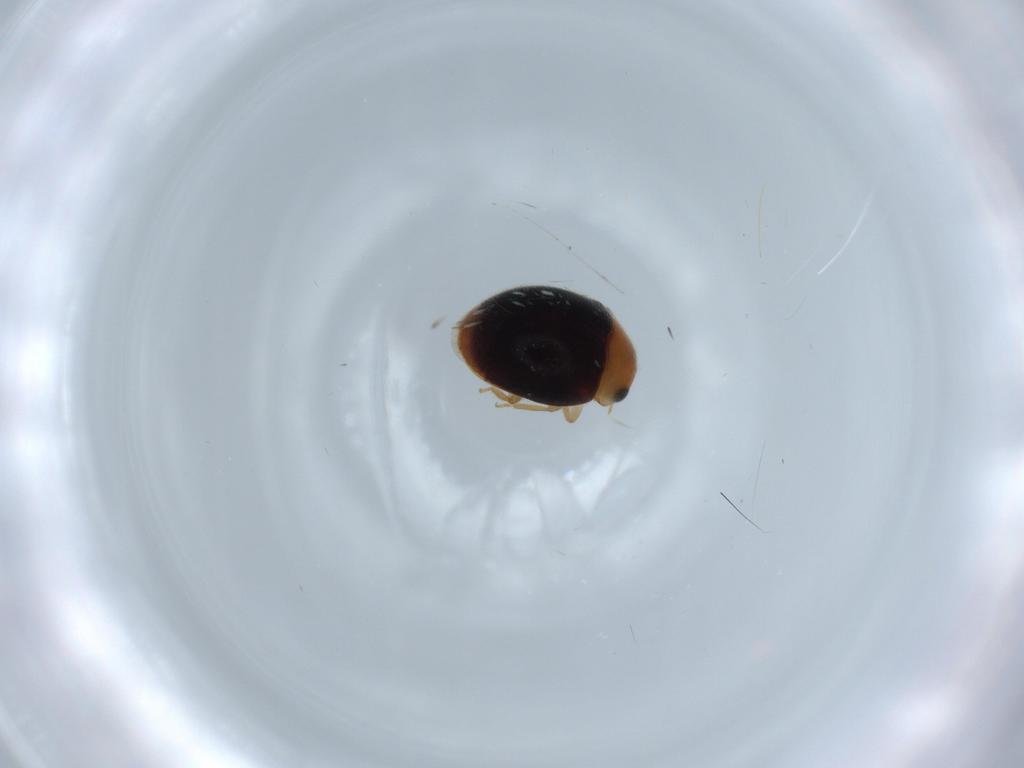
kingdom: Animalia
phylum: Arthropoda
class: Insecta
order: Coleoptera
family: Coccinellidae
